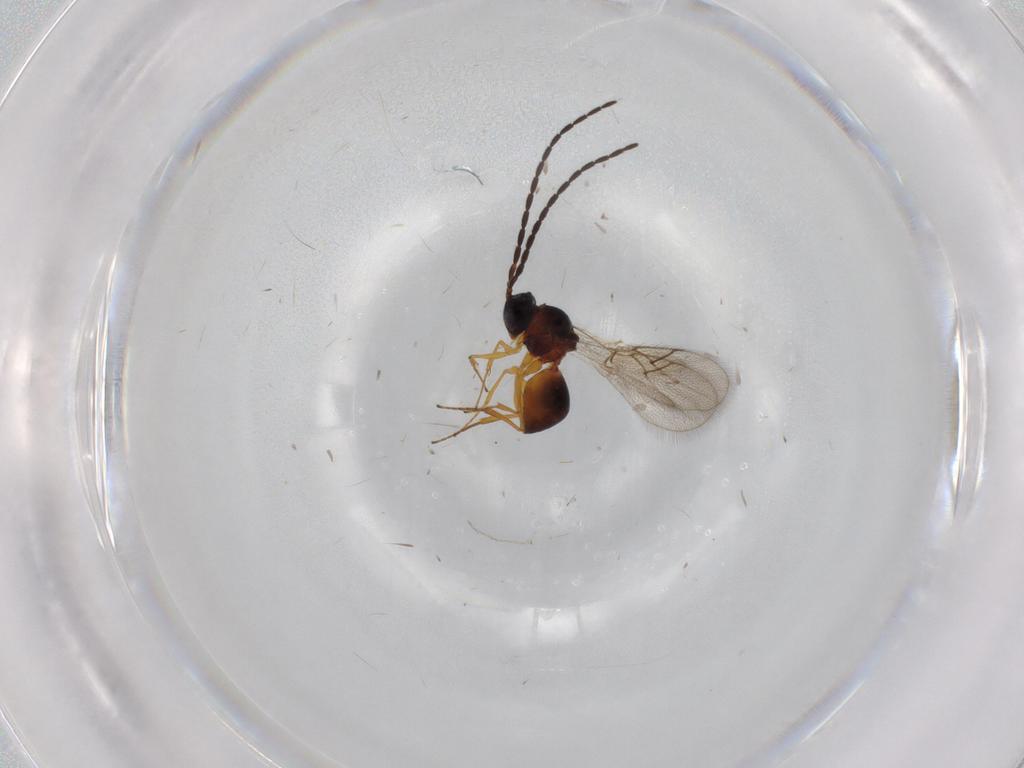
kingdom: Animalia
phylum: Arthropoda
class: Insecta
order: Hymenoptera
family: Figitidae
